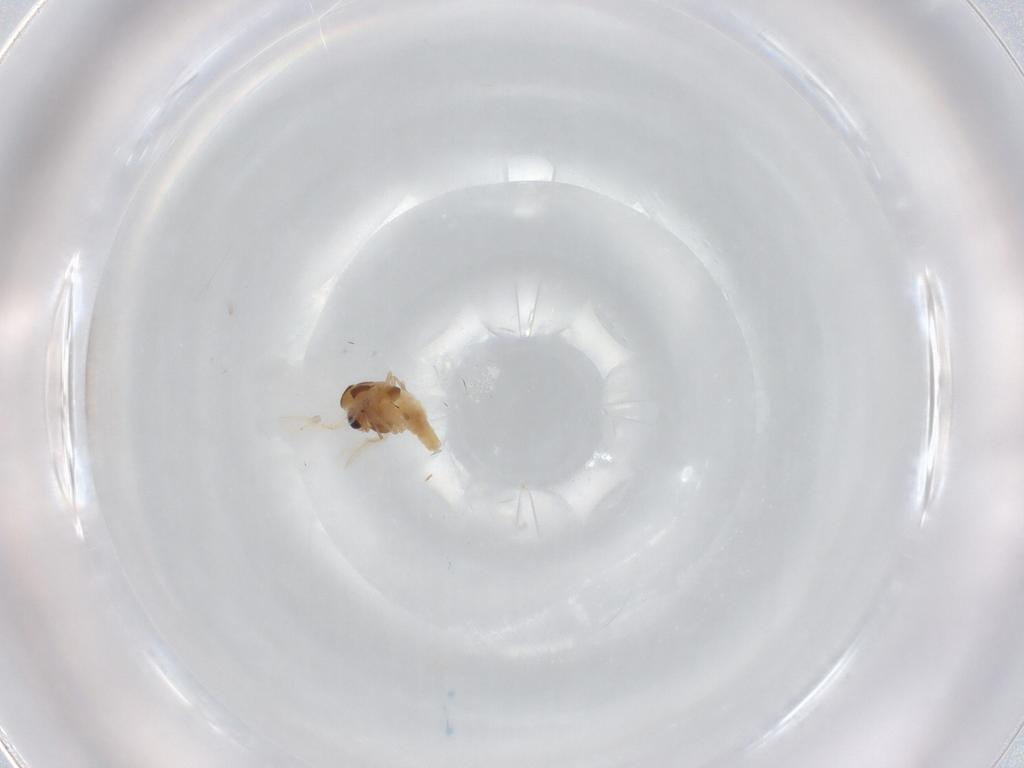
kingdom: Animalia
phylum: Arthropoda
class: Insecta
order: Diptera
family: Chironomidae
